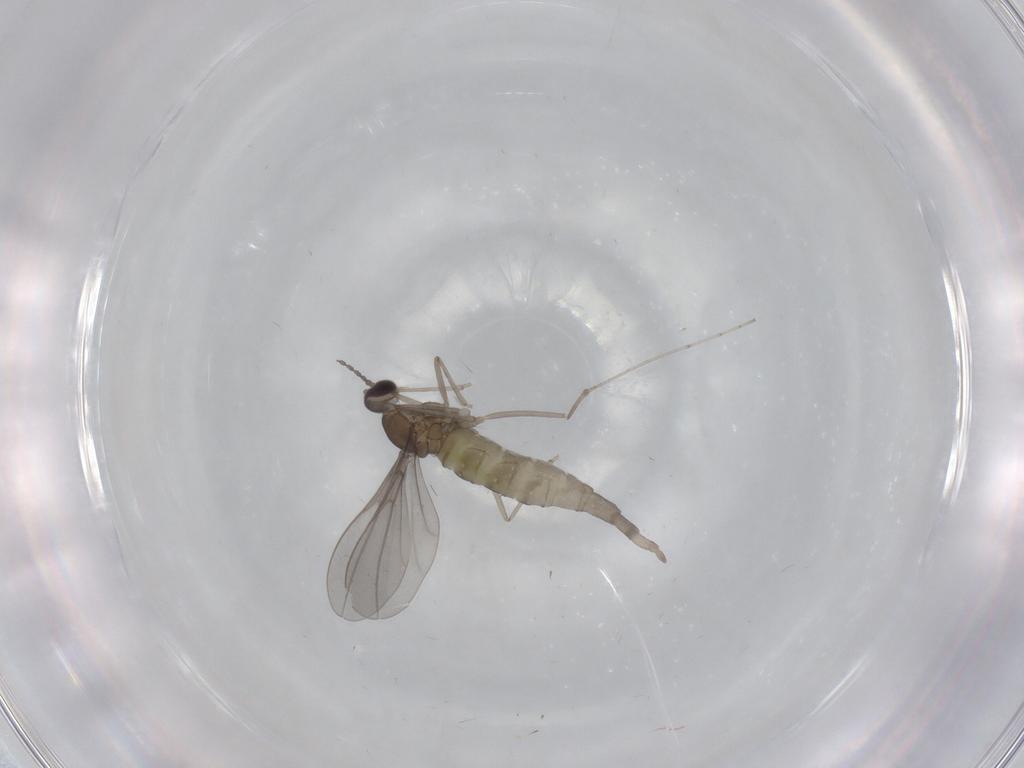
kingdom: Animalia
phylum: Arthropoda
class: Insecta
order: Diptera
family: Cecidomyiidae
